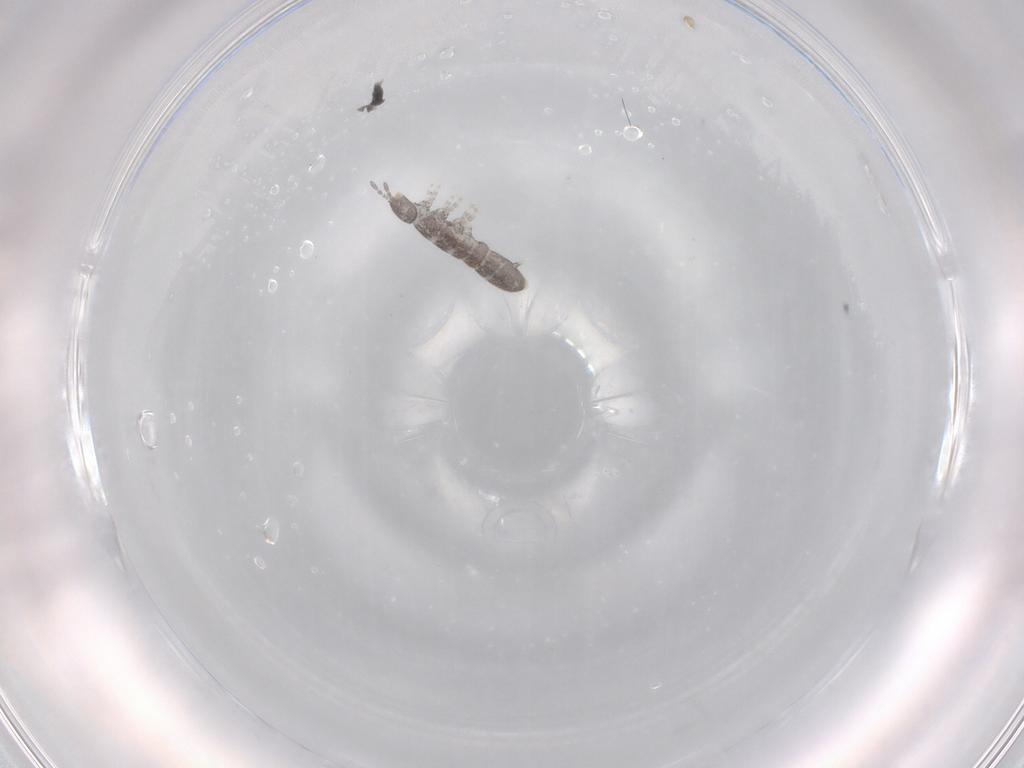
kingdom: Animalia
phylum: Arthropoda
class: Collembola
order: Entomobryomorpha
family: Isotomidae
